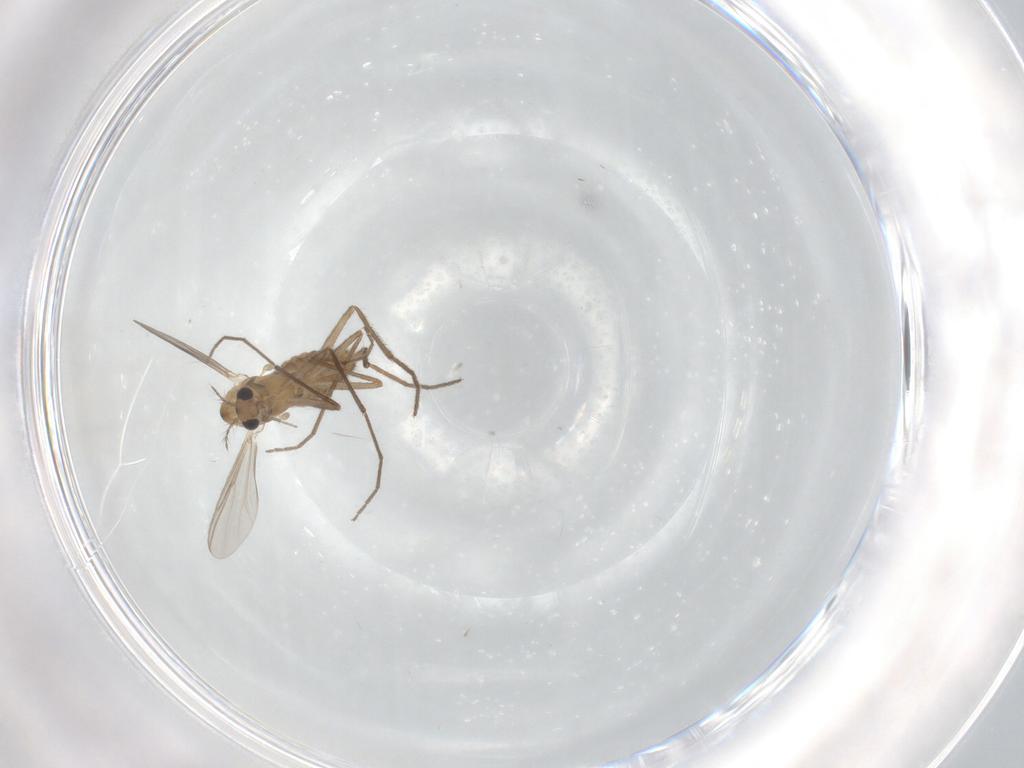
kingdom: Animalia
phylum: Arthropoda
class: Insecta
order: Diptera
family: Chironomidae
